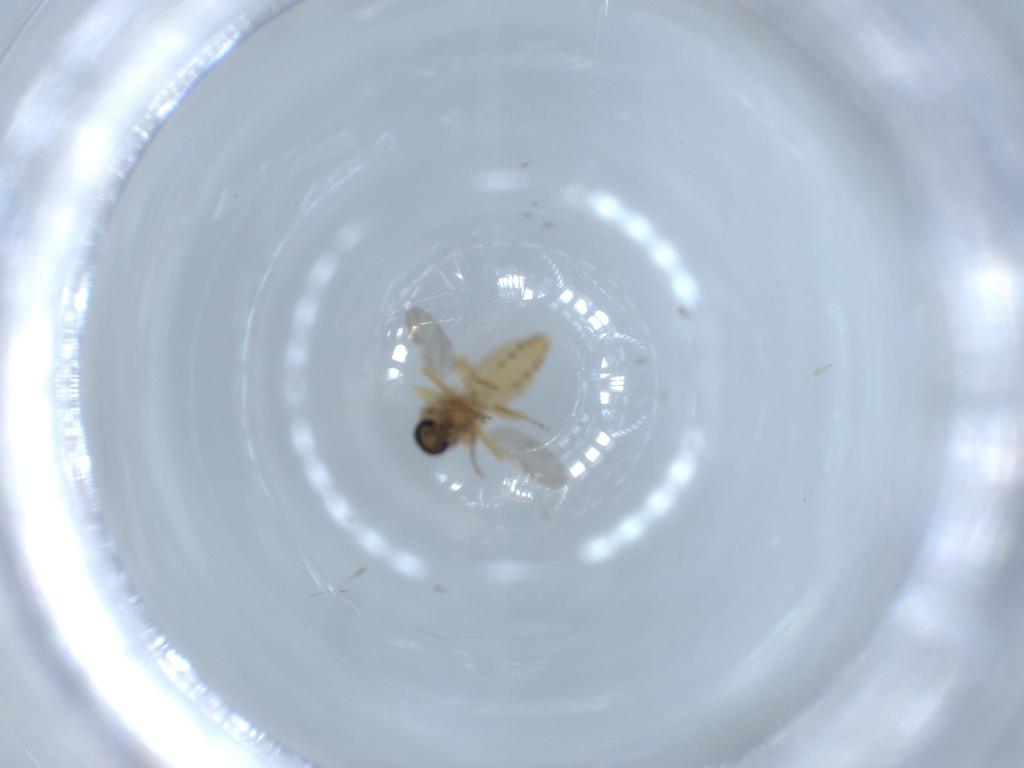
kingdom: Animalia
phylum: Arthropoda
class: Insecta
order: Diptera
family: Ceratopogonidae
